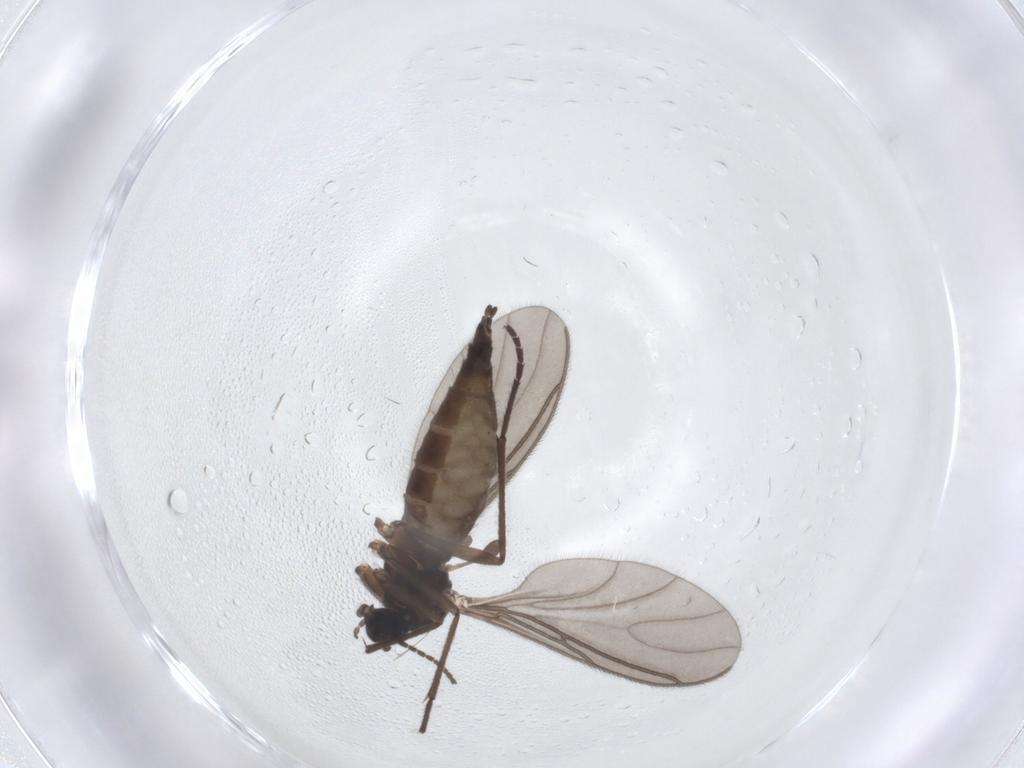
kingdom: Animalia
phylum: Arthropoda
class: Insecta
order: Diptera
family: Sciaridae
